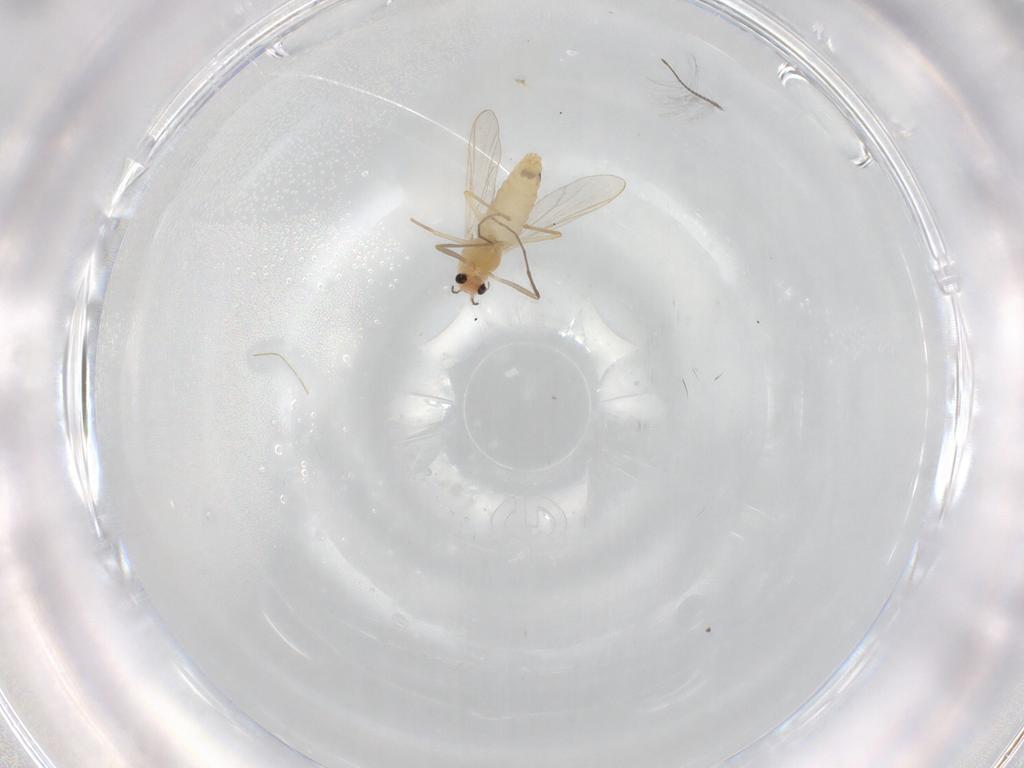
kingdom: Animalia
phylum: Arthropoda
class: Insecta
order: Diptera
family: Chironomidae
